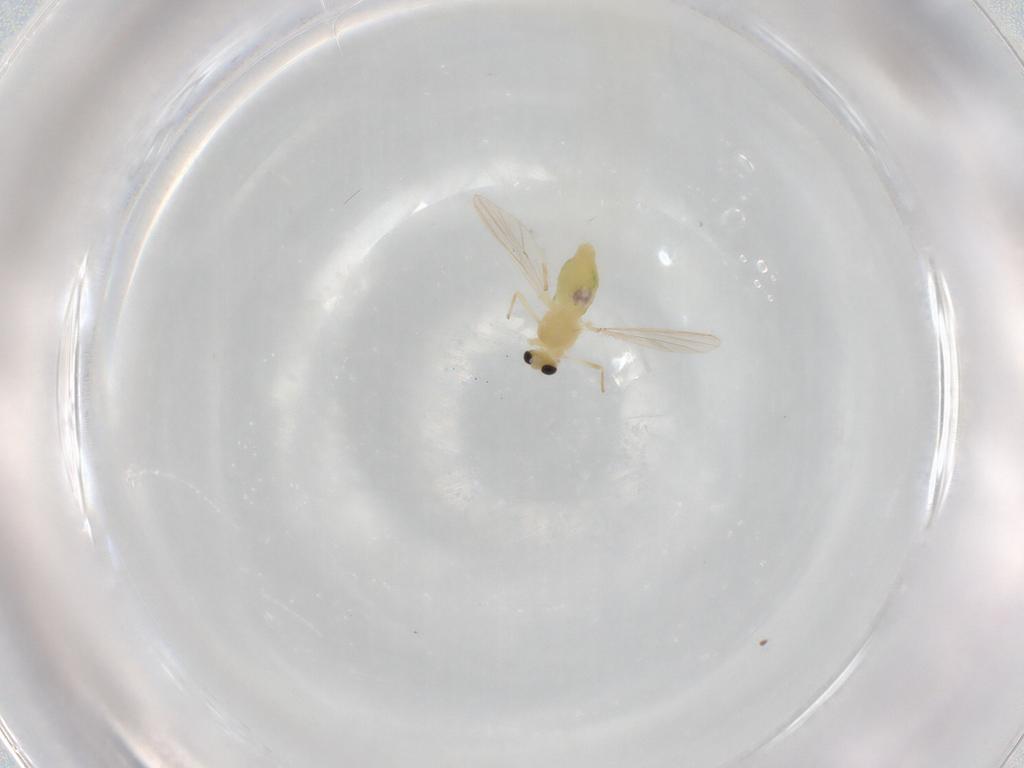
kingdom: Animalia
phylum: Arthropoda
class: Insecta
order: Diptera
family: Chironomidae
